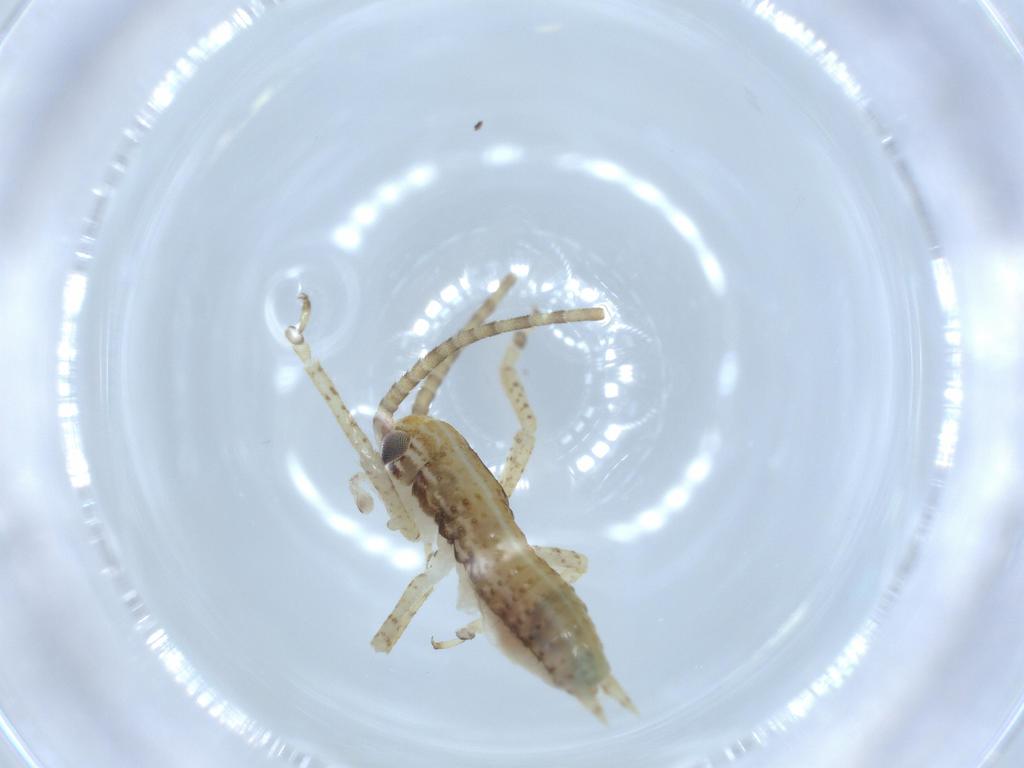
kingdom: Animalia
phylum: Arthropoda
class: Insecta
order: Orthoptera
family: Gryllidae
